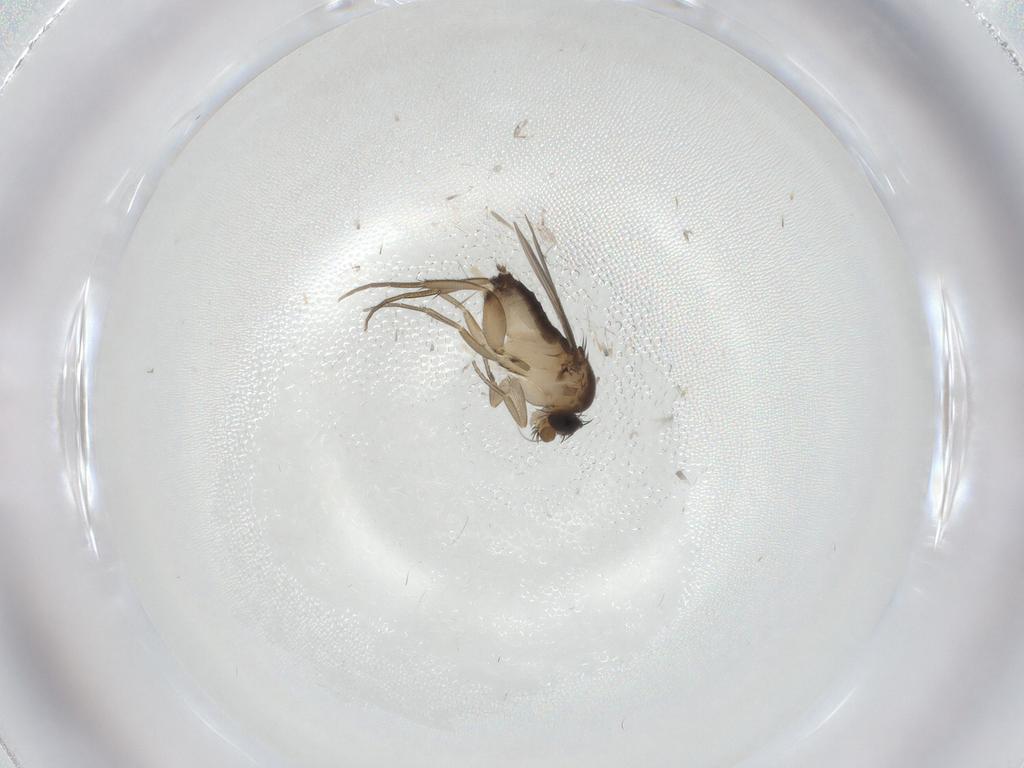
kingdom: Animalia
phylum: Arthropoda
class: Insecta
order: Diptera
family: Phoridae
